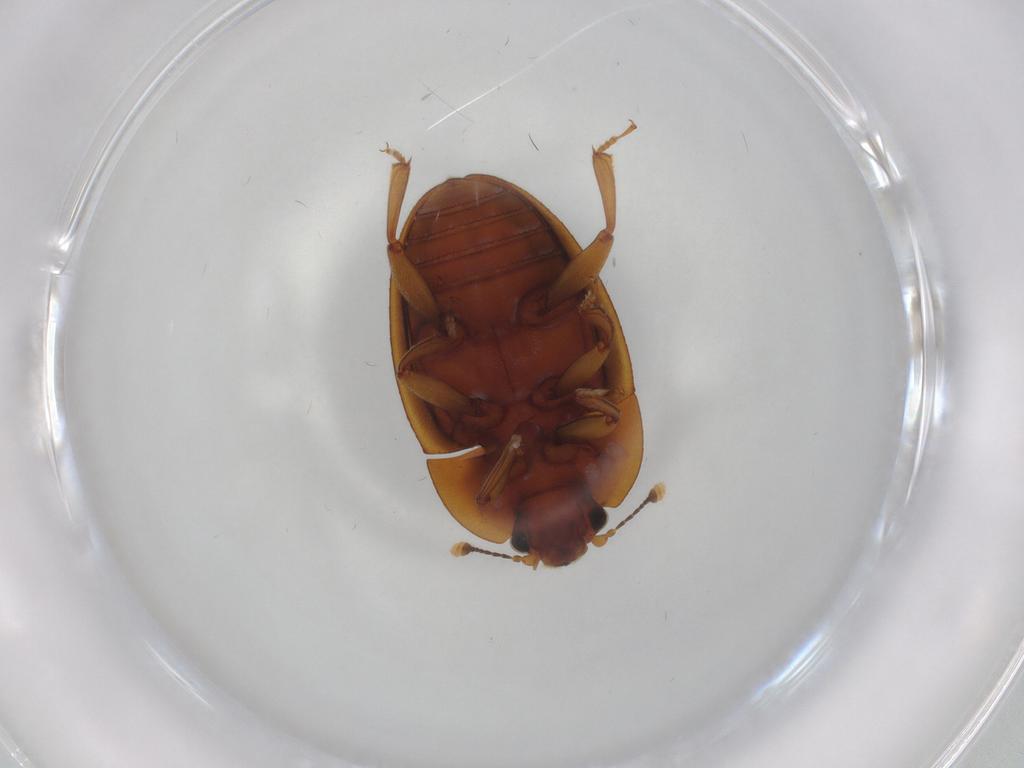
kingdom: Animalia
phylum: Arthropoda
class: Insecta
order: Coleoptera
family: Nitidulidae
